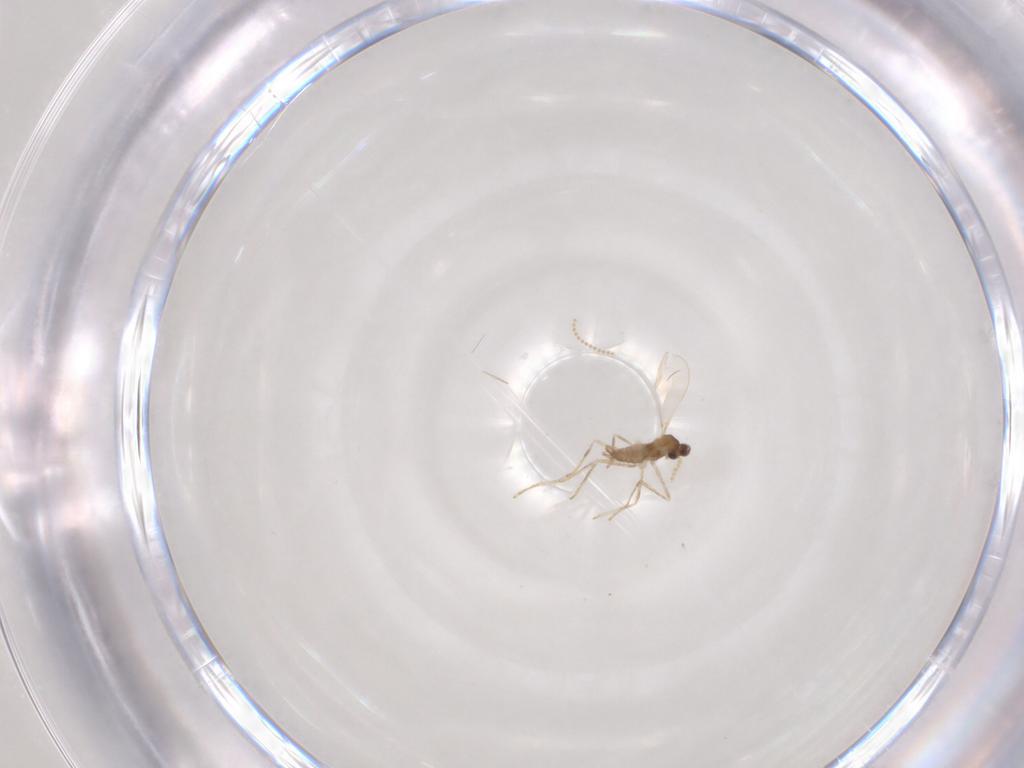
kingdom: Animalia
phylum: Arthropoda
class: Insecta
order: Diptera
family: Cecidomyiidae
